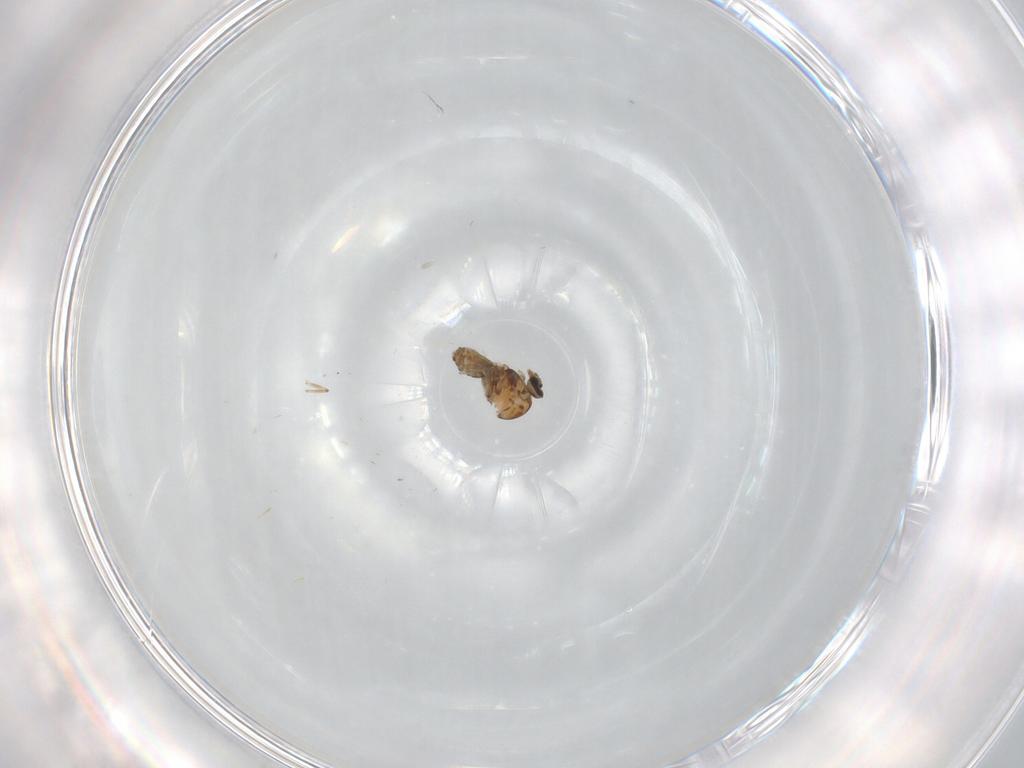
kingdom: Animalia
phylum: Arthropoda
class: Insecta
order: Diptera
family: Ceratopogonidae
